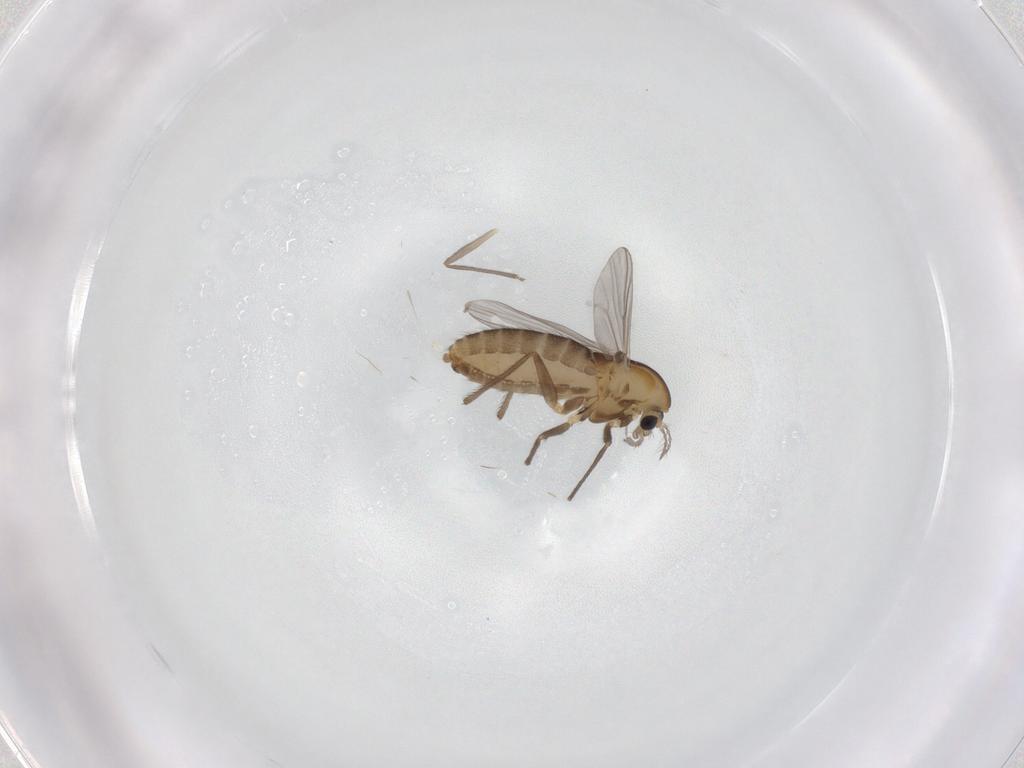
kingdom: Animalia
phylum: Arthropoda
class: Insecta
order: Diptera
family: Chironomidae
